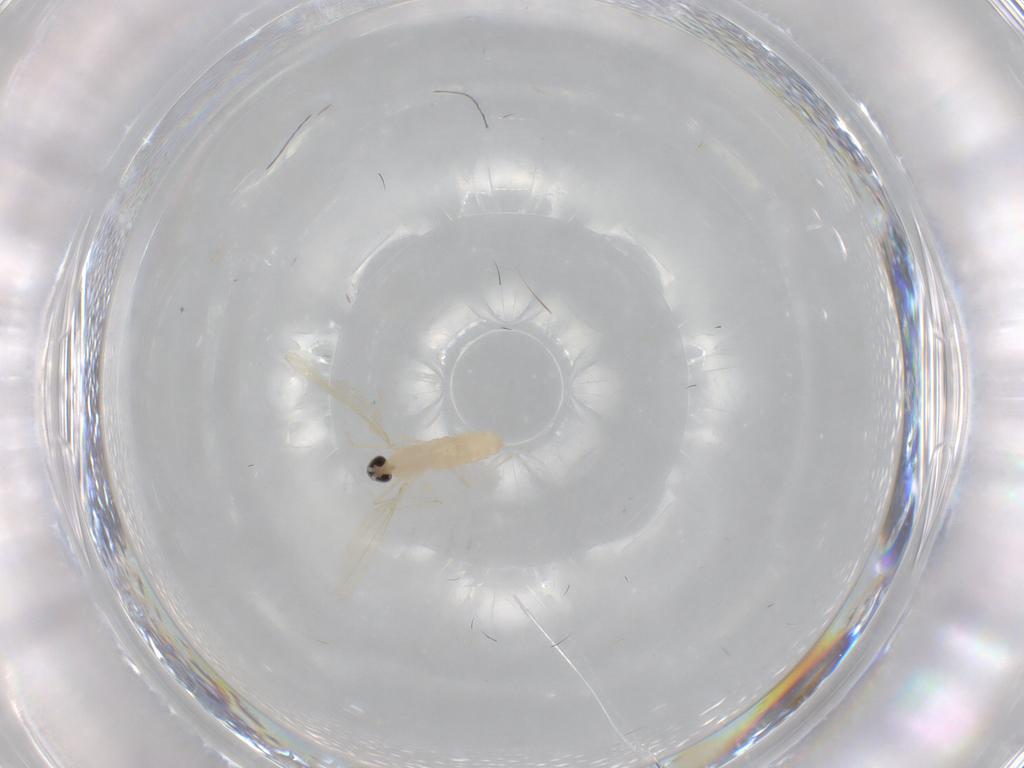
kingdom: Animalia
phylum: Arthropoda
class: Insecta
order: Diptera
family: Cecidomyiidae
